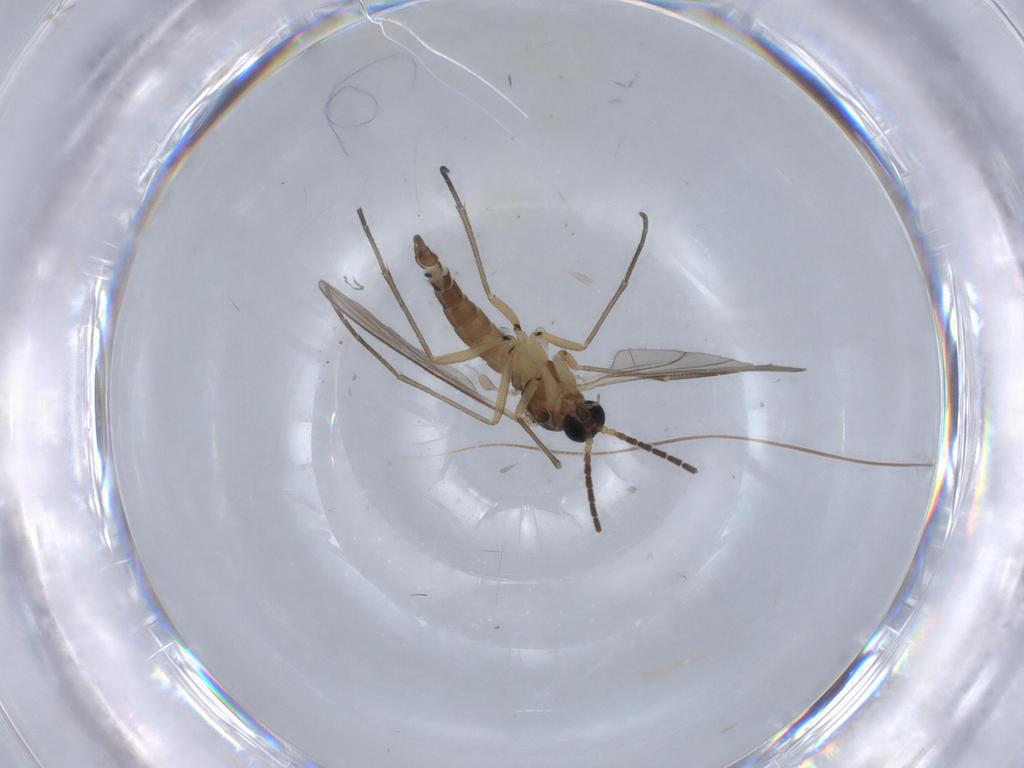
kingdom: Animalia
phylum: Arthropoda
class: Insecta
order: Diptera
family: Sciaridae
